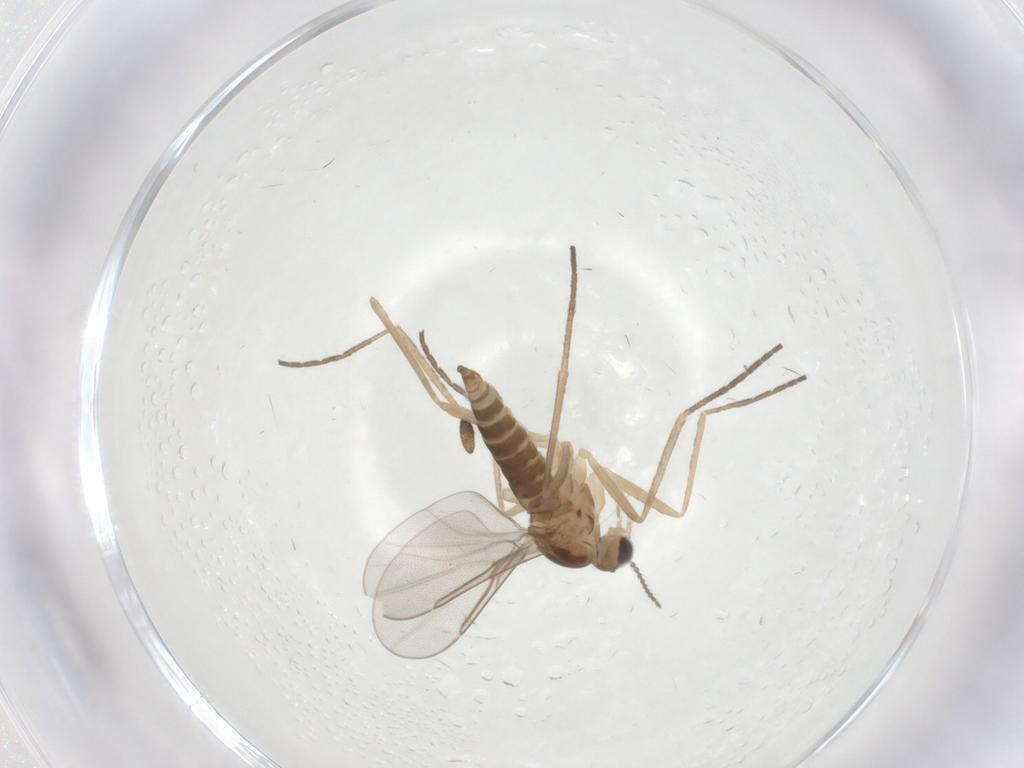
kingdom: Animalia
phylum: Arthropoda
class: Insecta
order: Diptera
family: Cecidomyiidae
